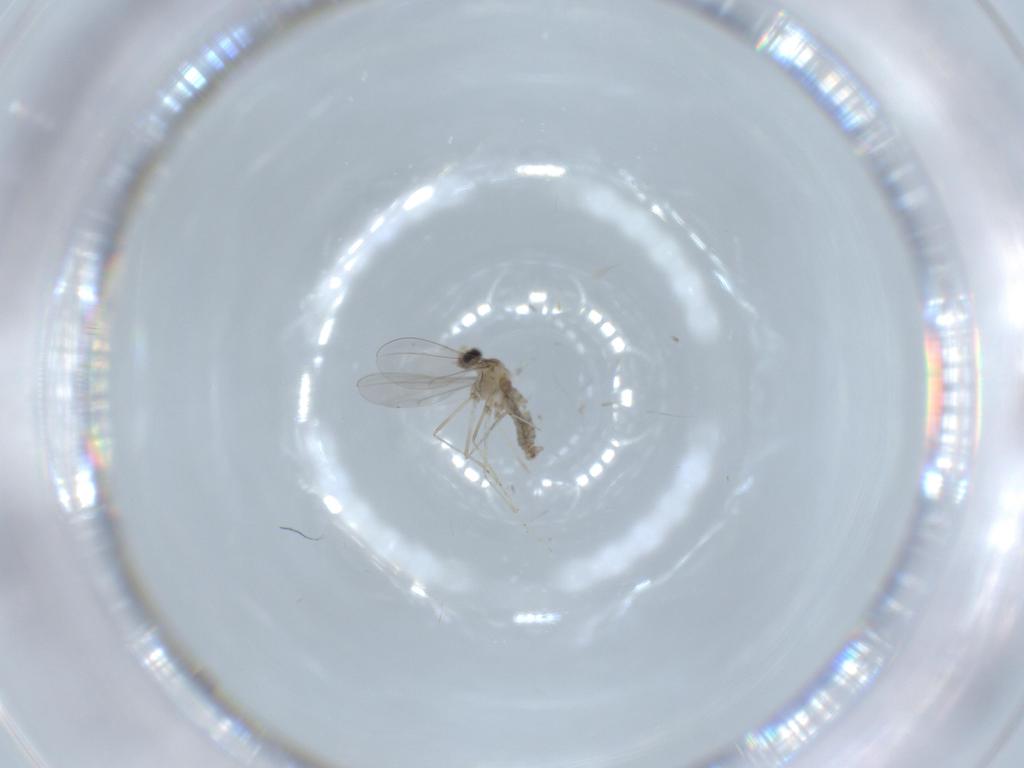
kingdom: Animalia
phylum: Arthropoda
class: Insecta
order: Diptera
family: Cecidomyiidae
